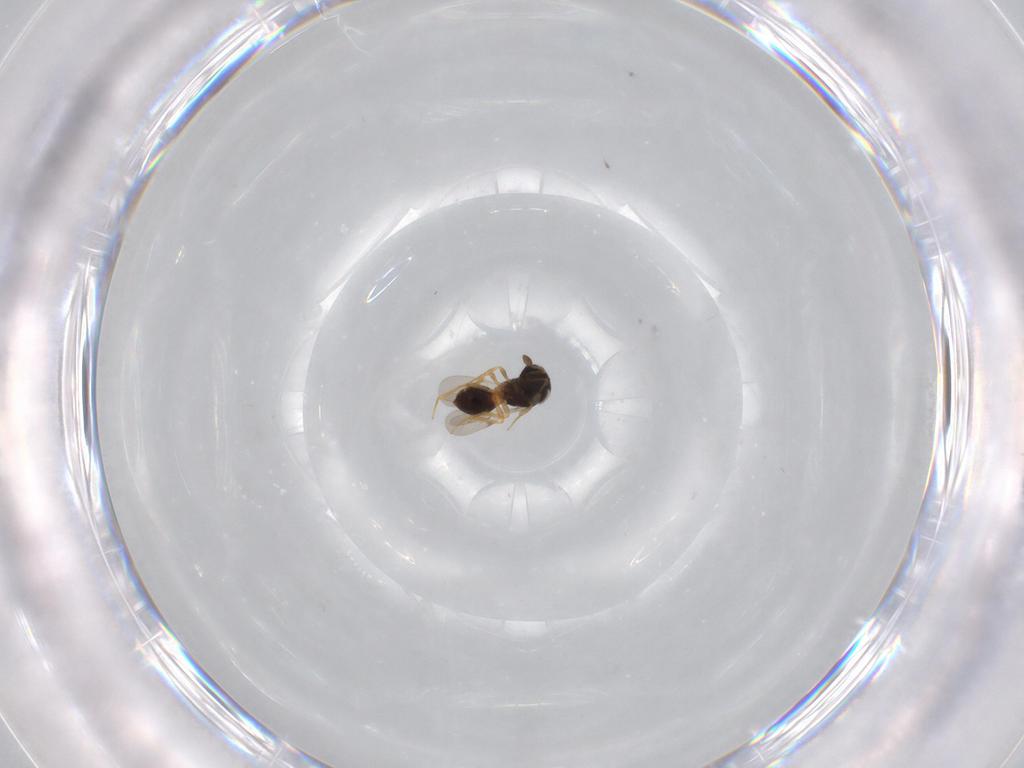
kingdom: Animalia
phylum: Arthropoda
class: Insecta
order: Hymenoptera
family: Scelionidae
